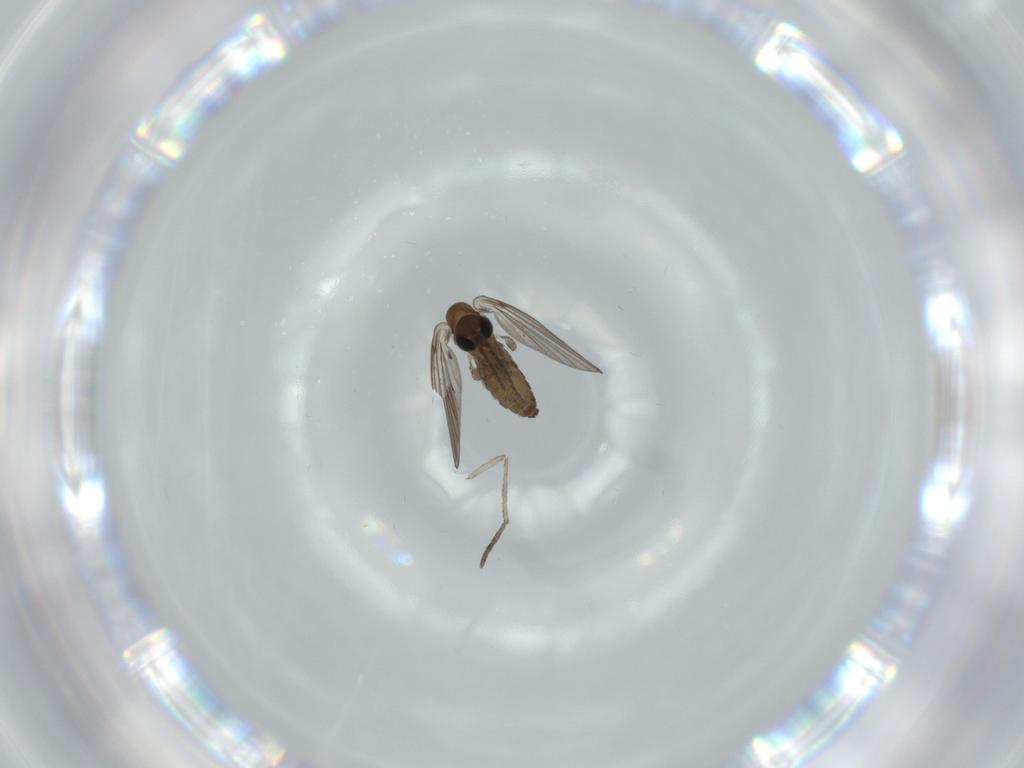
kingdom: Animalia
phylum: Arthropoda
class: Insecta
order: Diptera
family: Psychodidae
